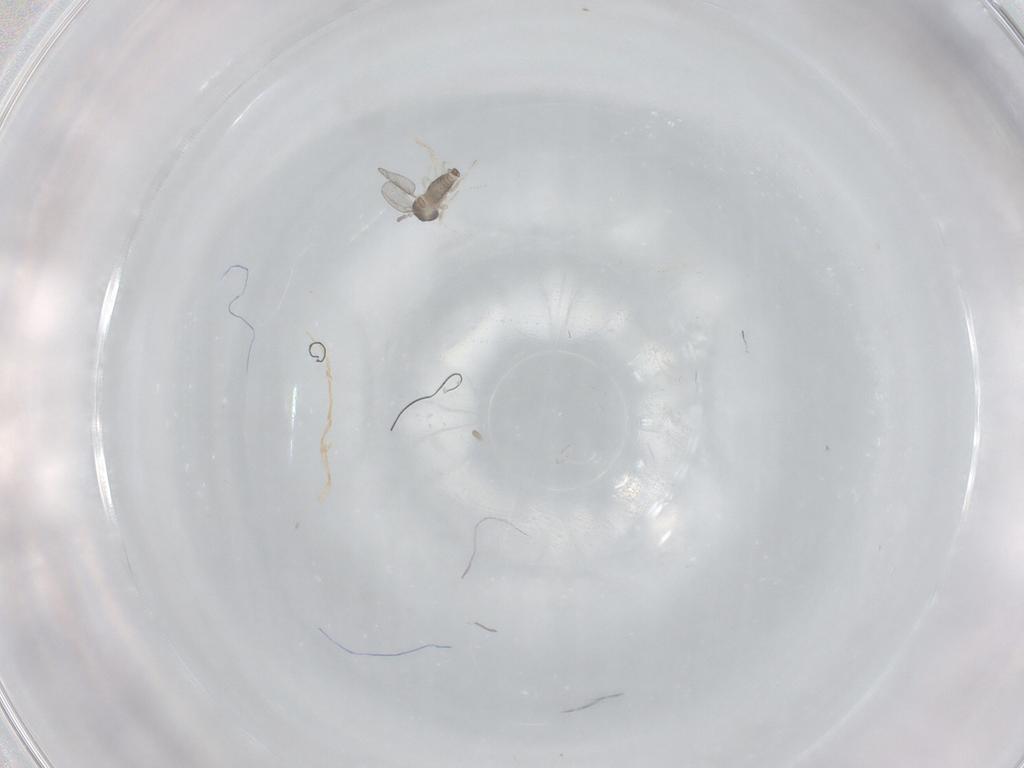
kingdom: Animalia
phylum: Arthropoda
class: Insecta
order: Diptera
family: Cecidomyiidae
